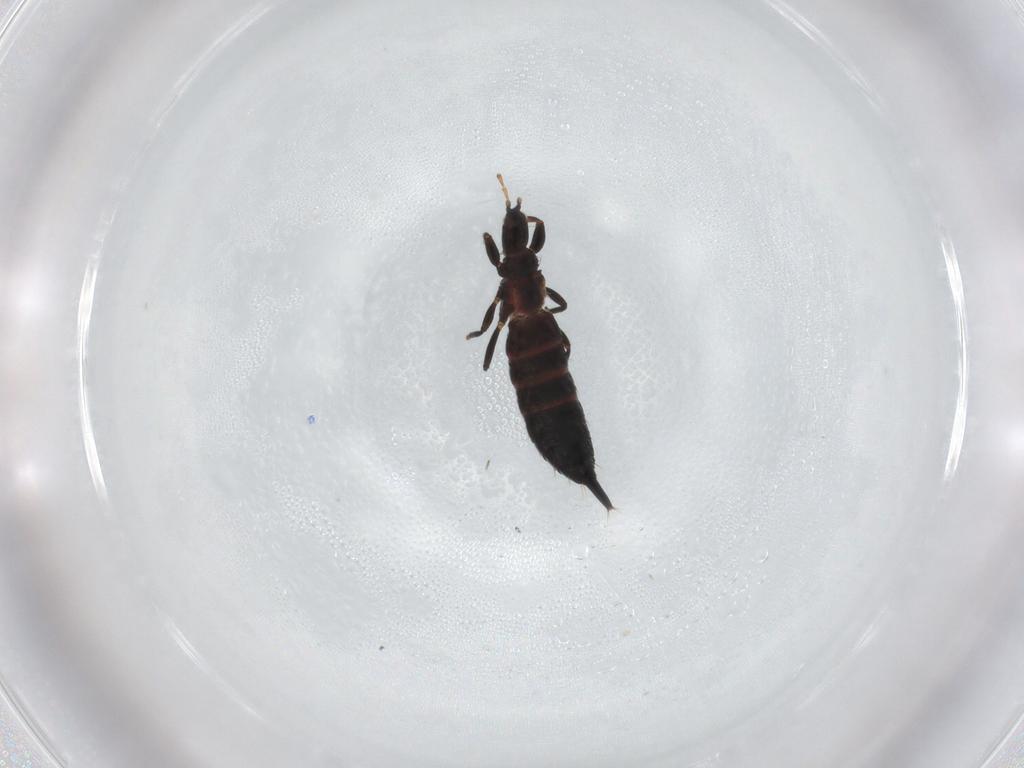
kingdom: Animalia
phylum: Arthropoda
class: Insecta
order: Thysanoptera
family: Phlaeothripidae
